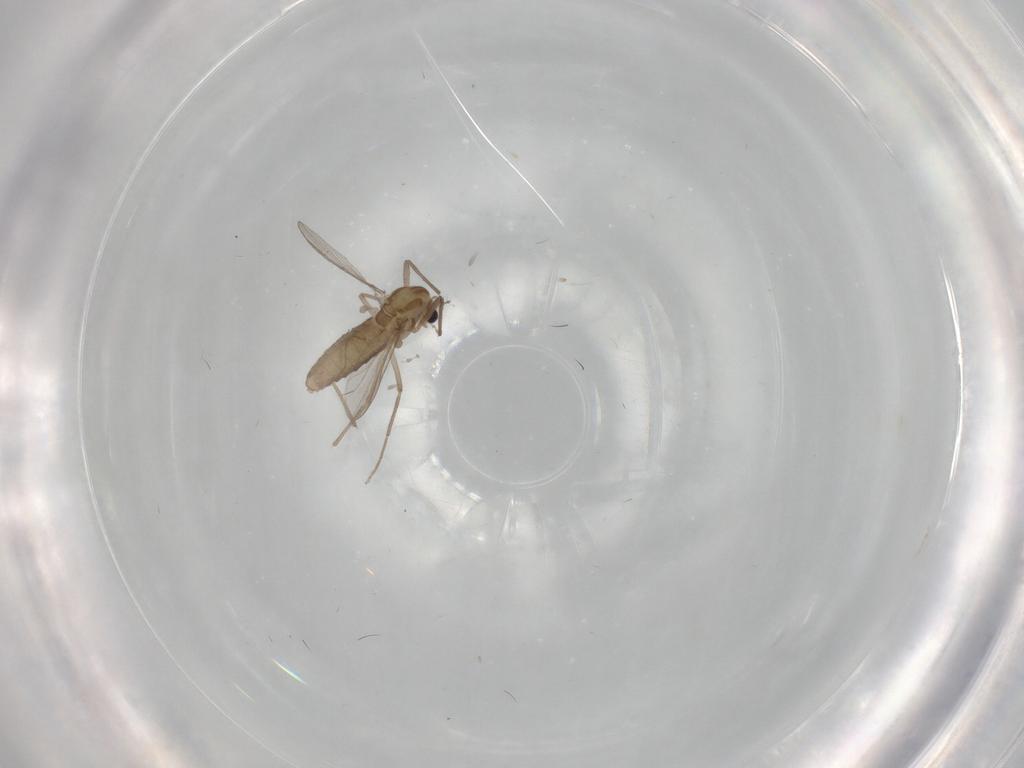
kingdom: Animalia
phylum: Arthropoda
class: Insecta
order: Diptera
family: Chironomidae
